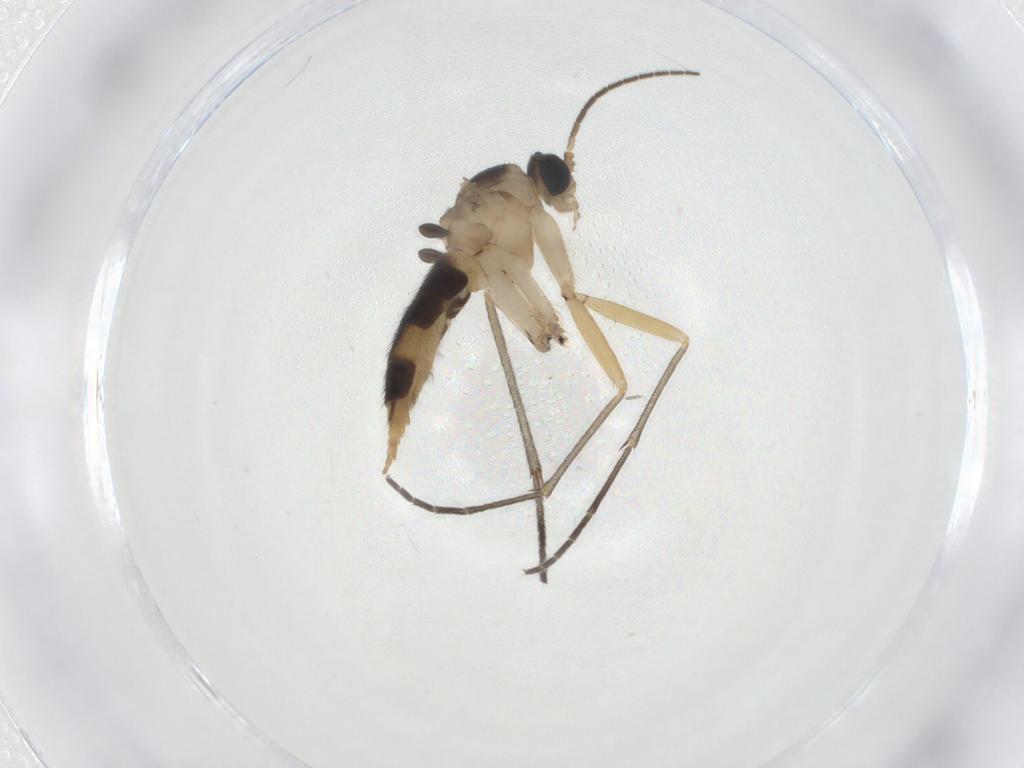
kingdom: Animalia
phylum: Arthropoda
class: Insecta
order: Diptera
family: Sciaridae
